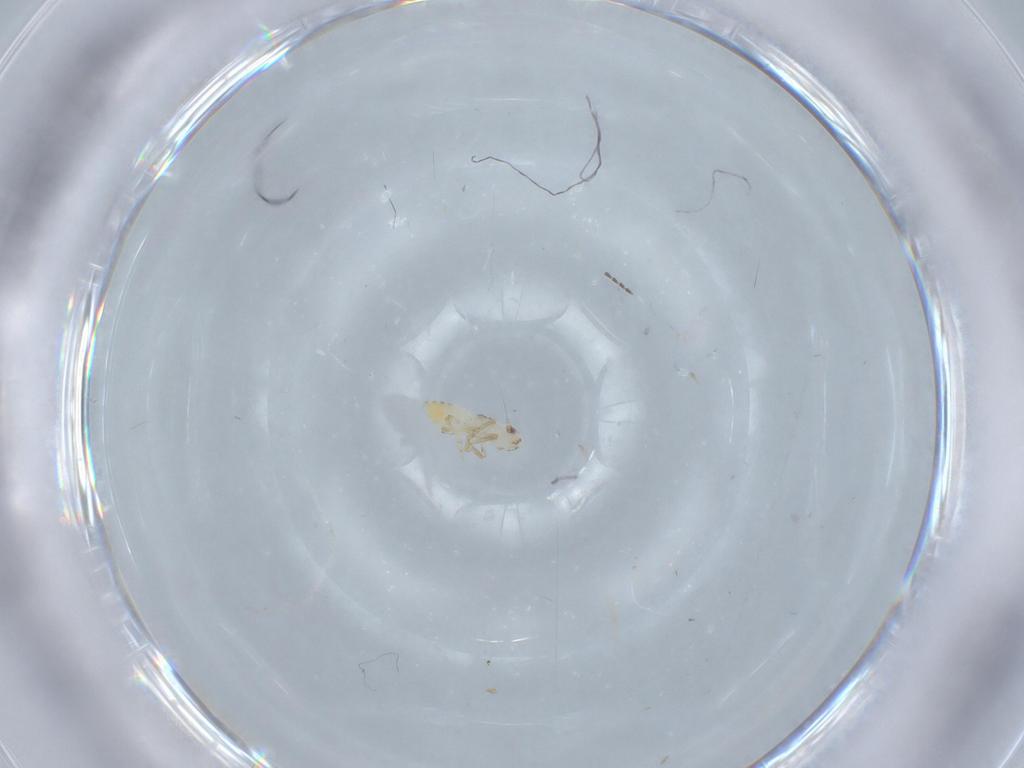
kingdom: Animalia
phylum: Arthropoda
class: Insecta
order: Hemiptera
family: Delphacidae
